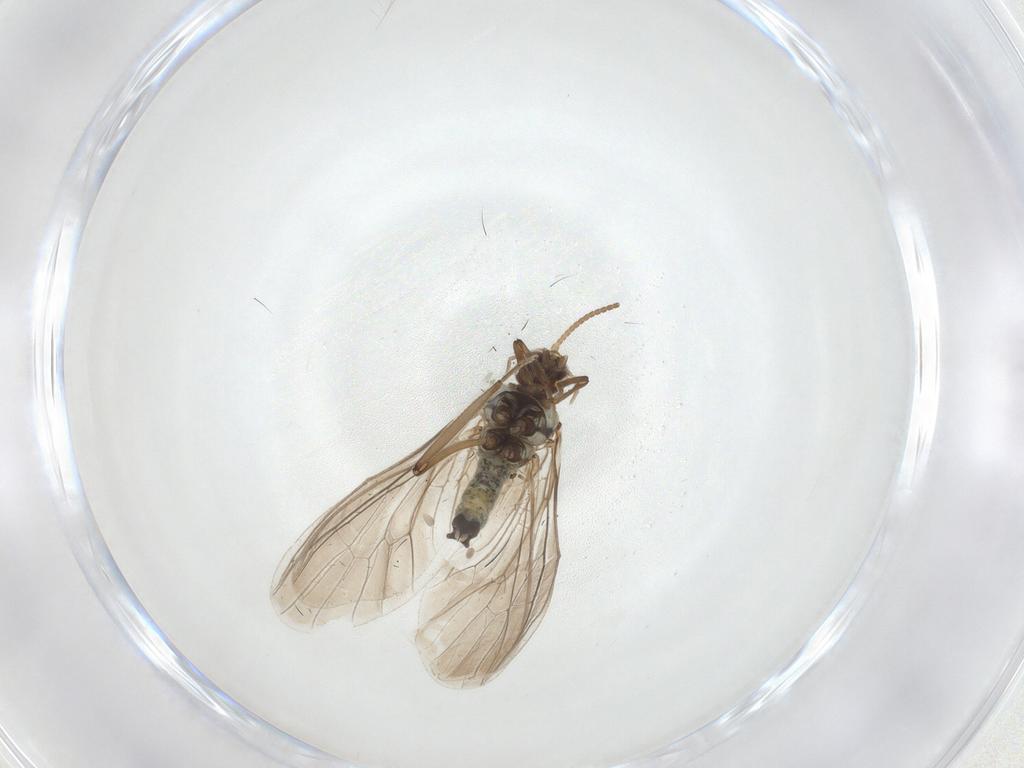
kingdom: Animalia
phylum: Arthropoda
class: Insecta
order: Neuroptera
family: Coniopterygidae
